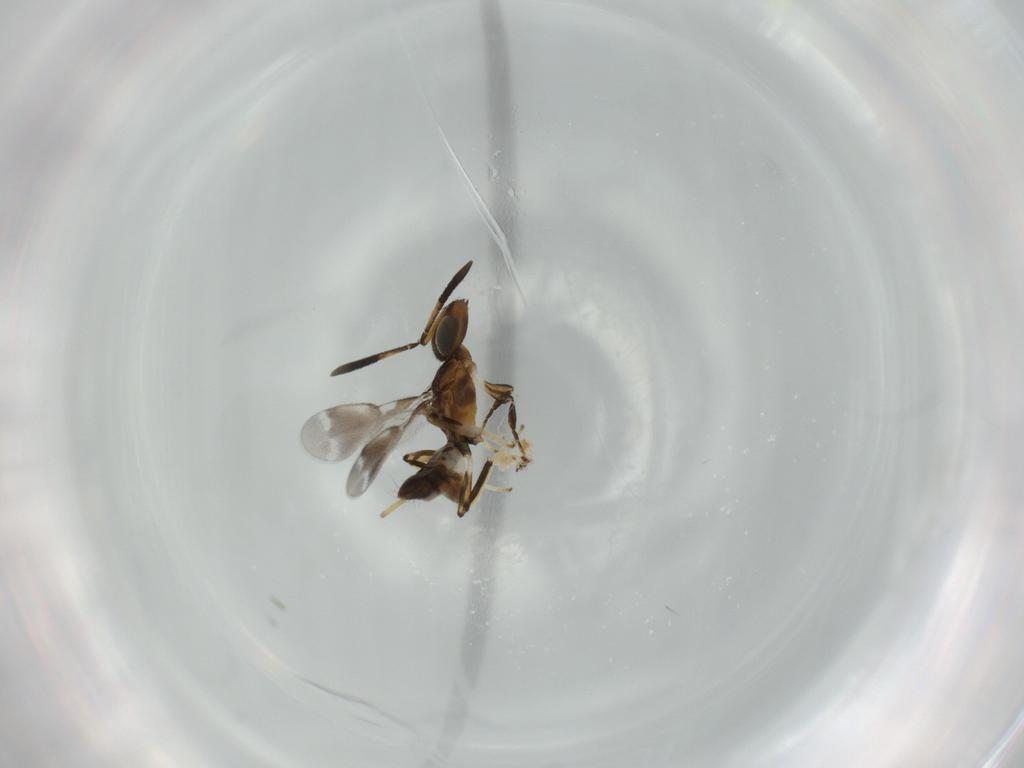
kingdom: Animalia
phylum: Arthropoda
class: Insecta
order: Hymenoptera
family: Eupelmidae
